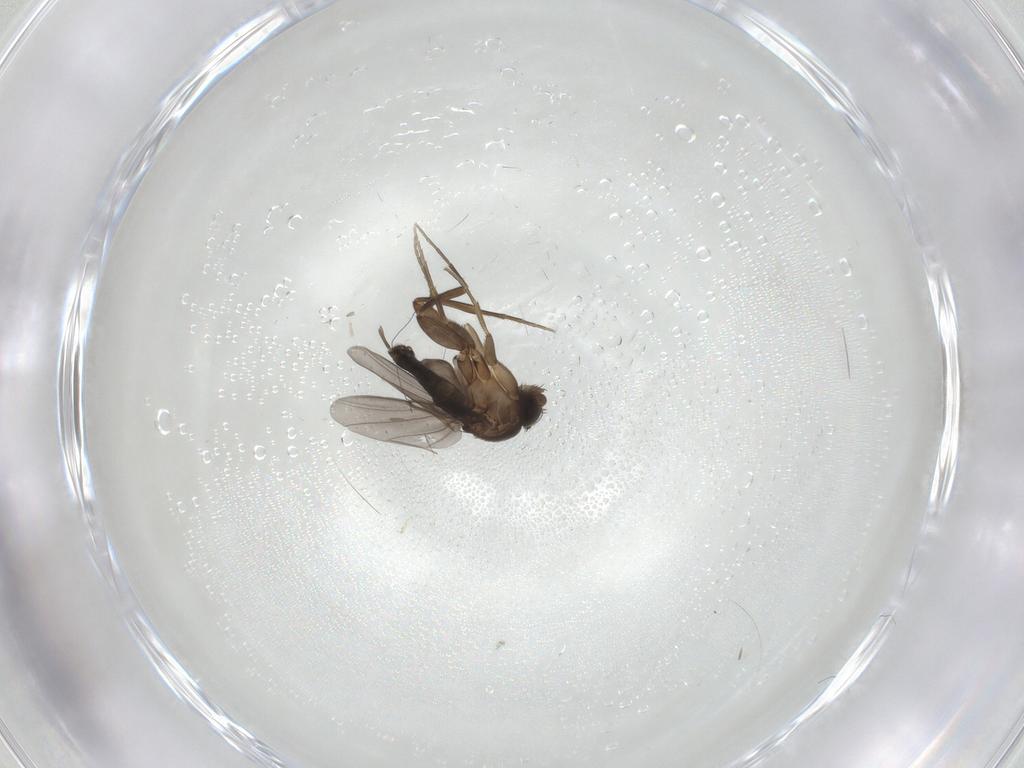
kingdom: Animalia
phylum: Arthropoda
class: Insecta
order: Diptera
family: Phoridae
